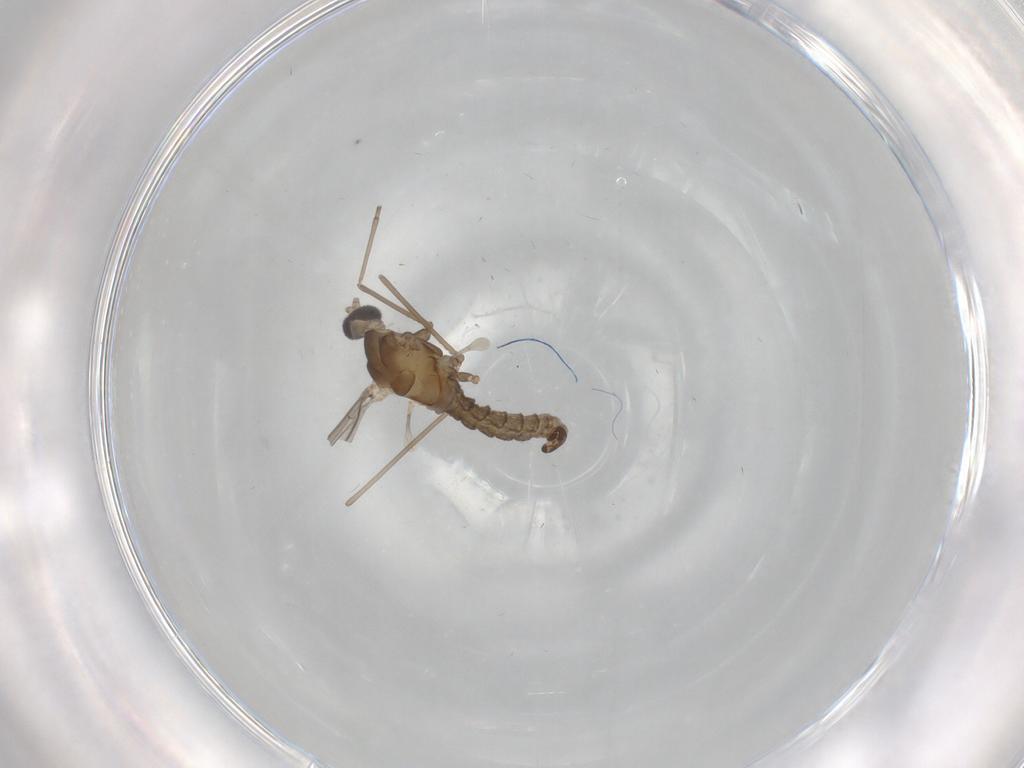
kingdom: Animalia
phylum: Arthropoda
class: Insecta
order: Diptera
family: Cecidomyiidae
